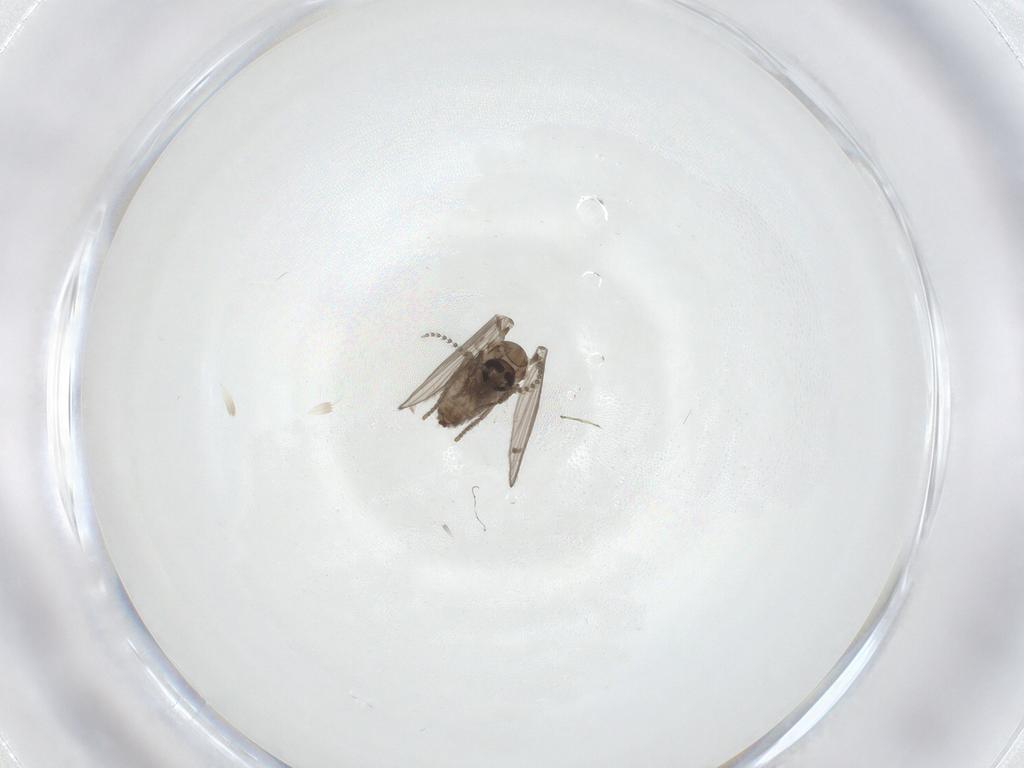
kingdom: Animalia
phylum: Arthropoda
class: Insecta
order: Diptera
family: Psychodidae
